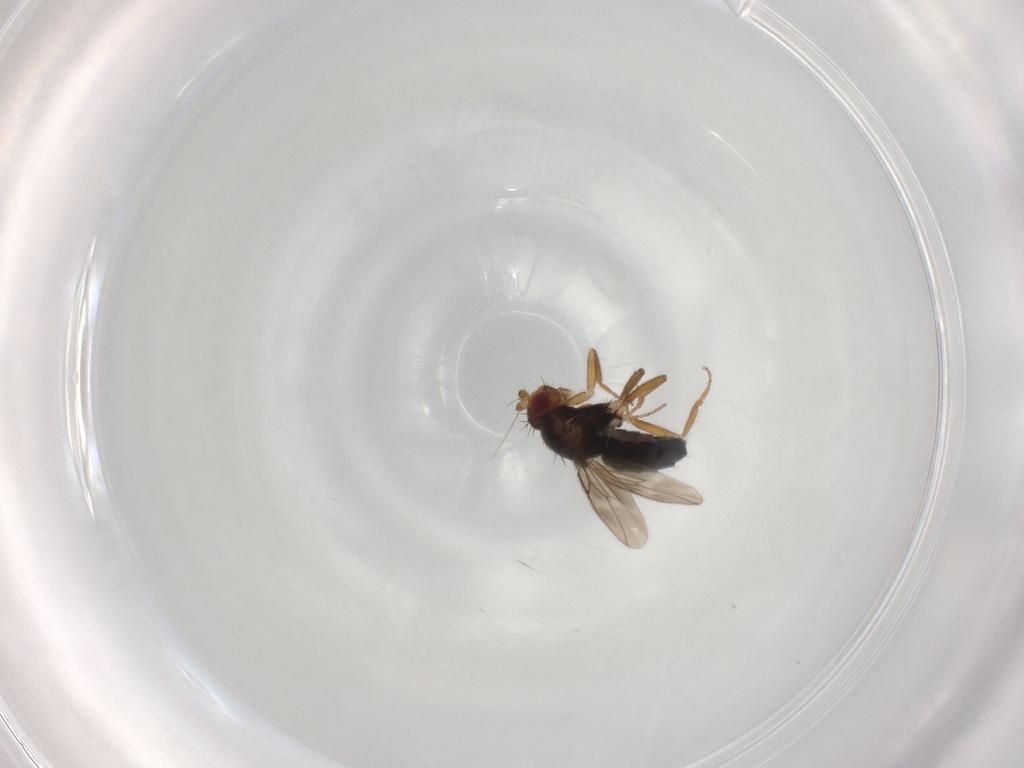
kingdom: Animalia
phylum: Arthropoda
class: Insecta
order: Diptera
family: Sphaeroceridae
